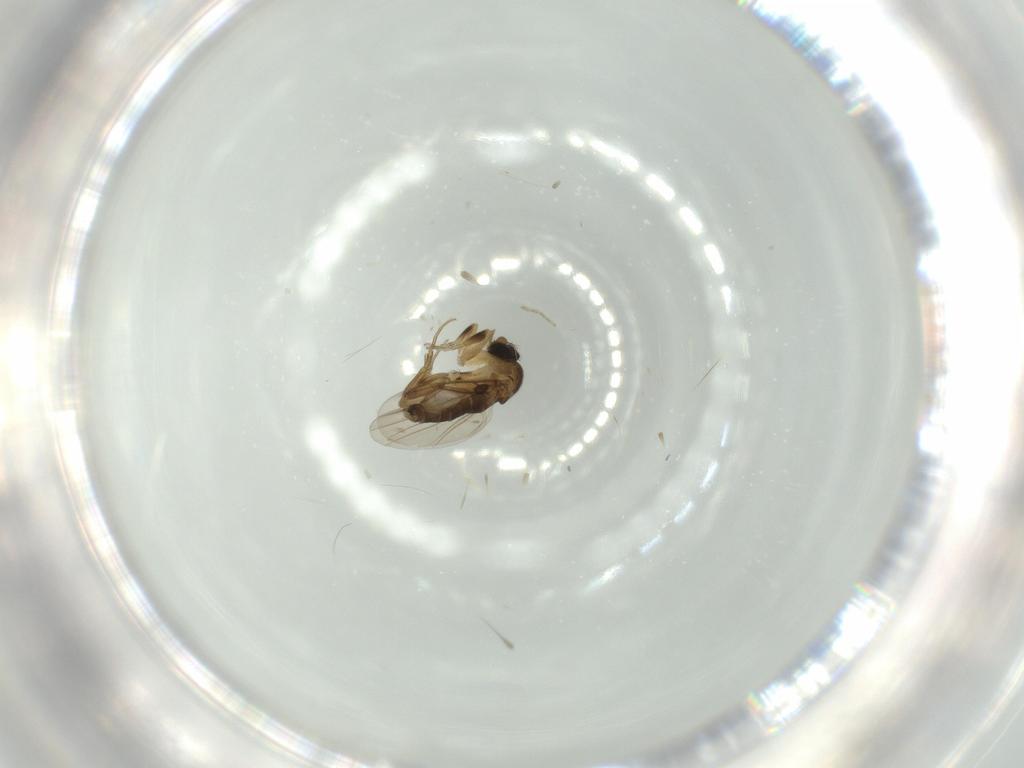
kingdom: Animalia
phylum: Arthropoda
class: Insecta
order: Diptera
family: Phoridae
